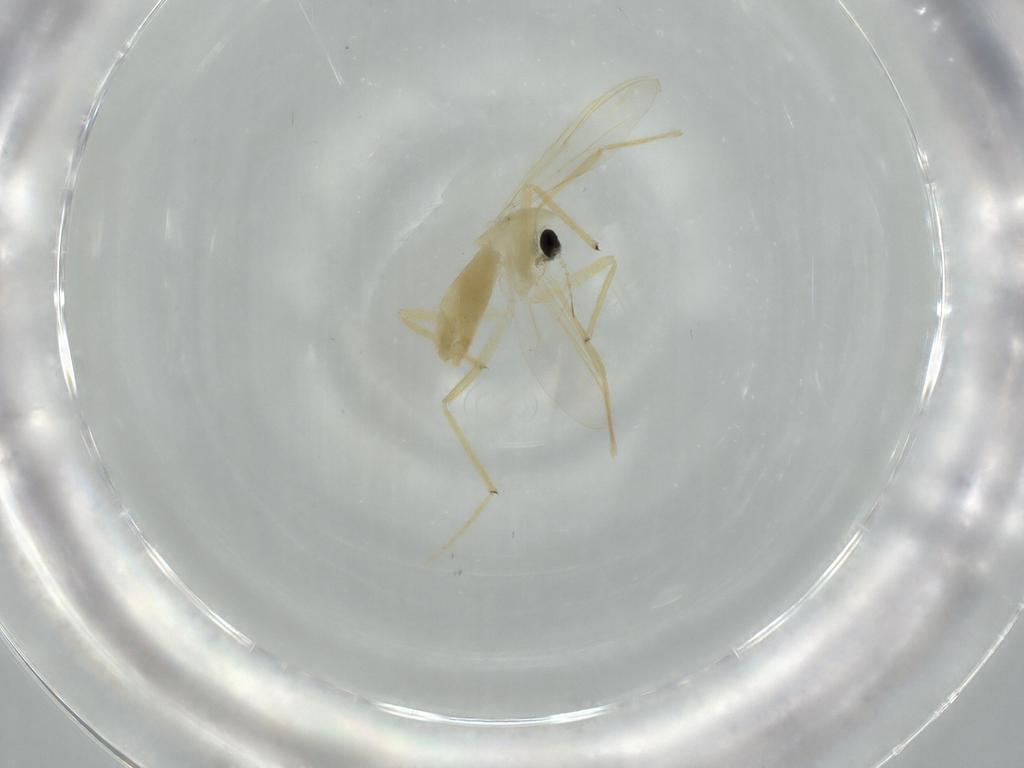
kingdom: Animalia
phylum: Arthropoda
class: Insecta
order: Diptera
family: Chironomidae
